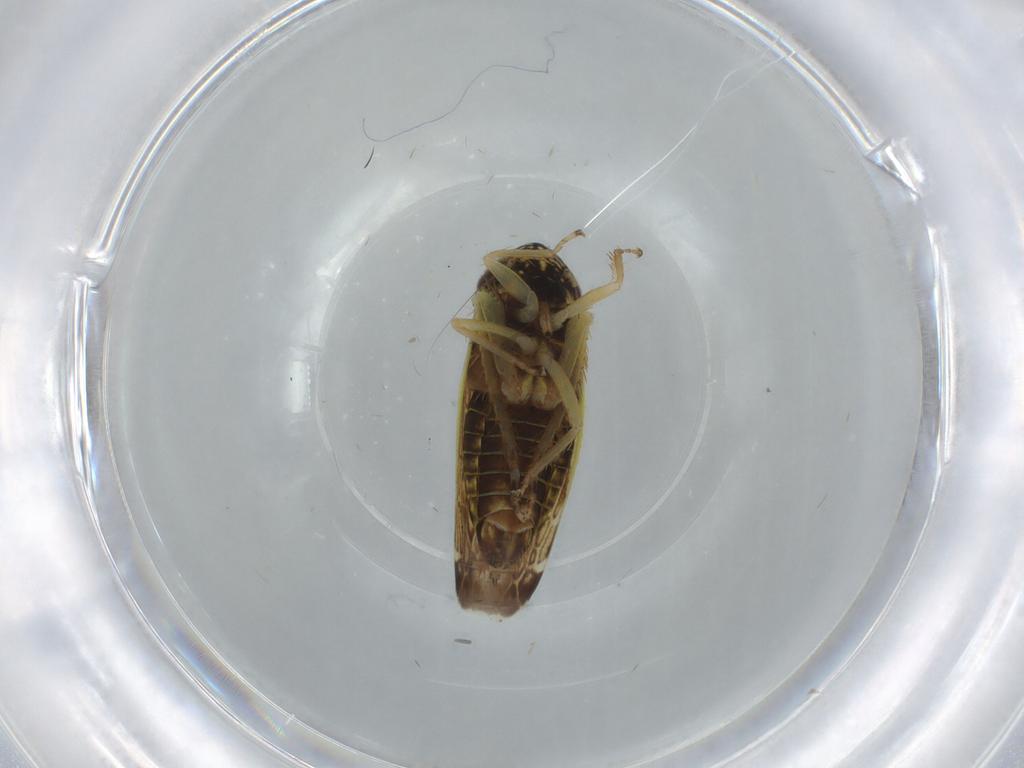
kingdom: Animalia
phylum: Arthropoda
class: Insecta
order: Hemiptera
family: Cicadellidae
